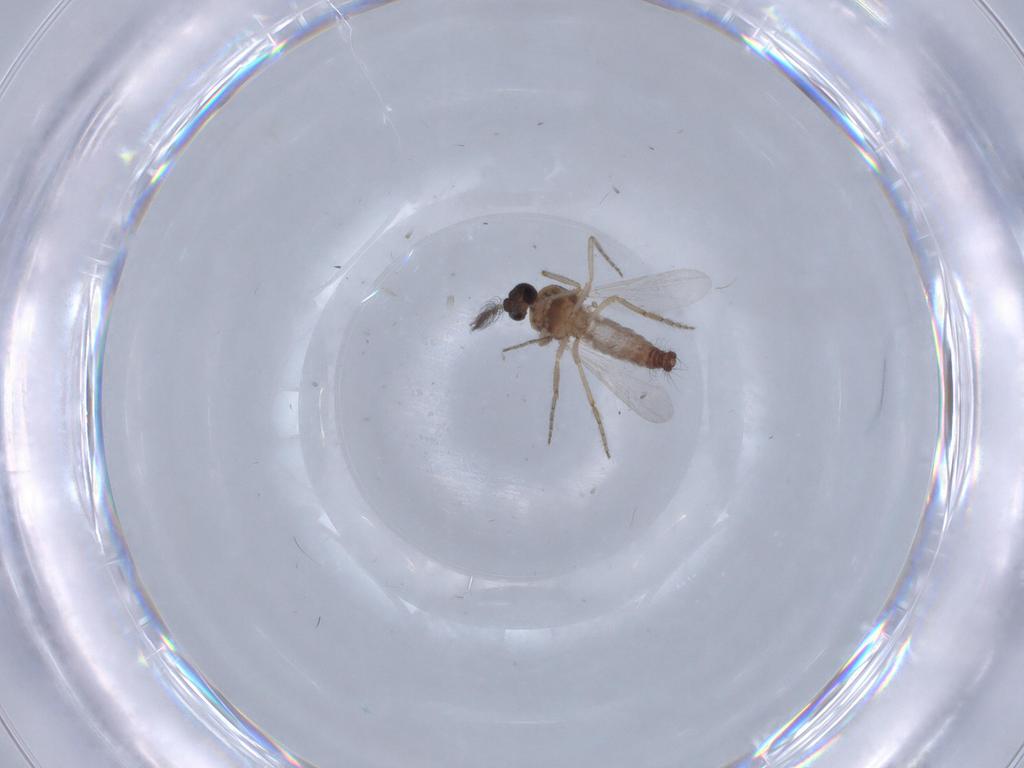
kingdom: Animalia
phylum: Arthropoda
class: Insecta
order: Diptera
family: Ceratopogonidae
